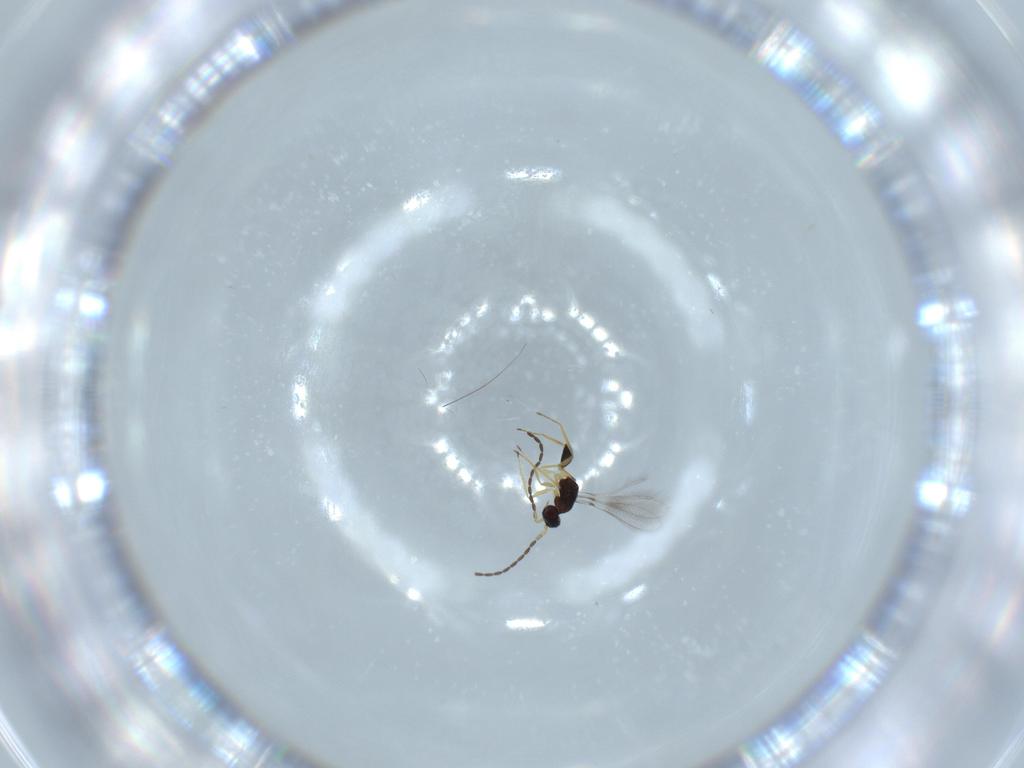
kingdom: Animalia
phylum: Arthropoda
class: Insecta
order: Hymenoptera
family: Mymaridae
